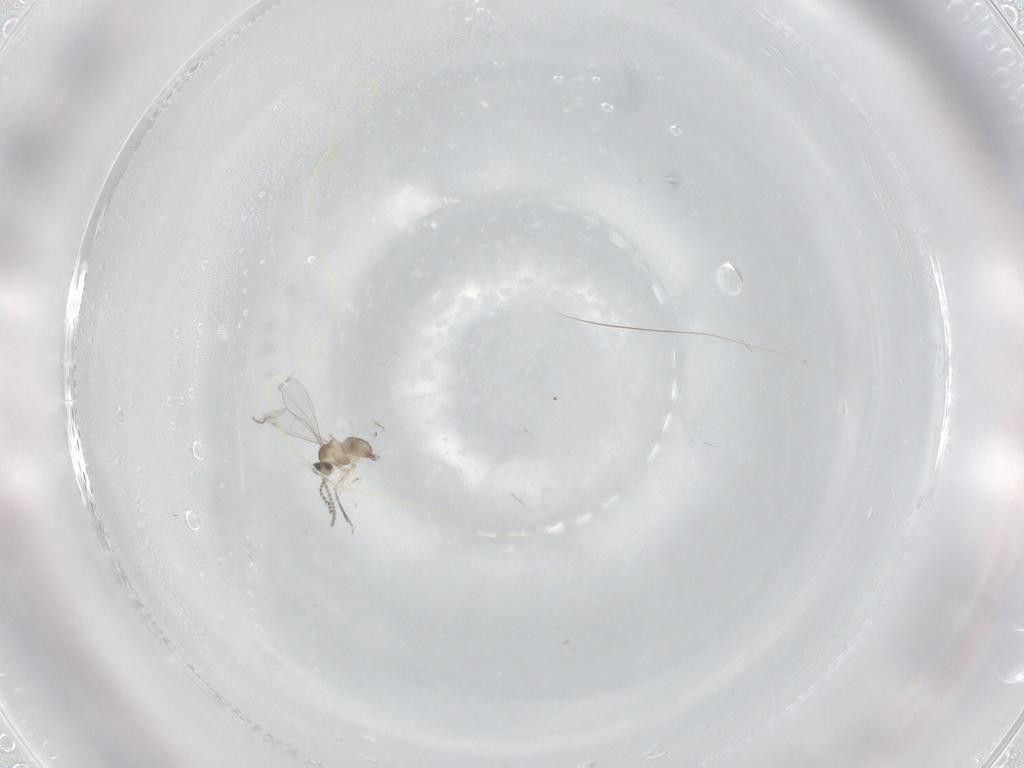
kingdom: Animalia
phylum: Arthropoda
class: Insecta
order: Diptera
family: Cecidomyiidae
